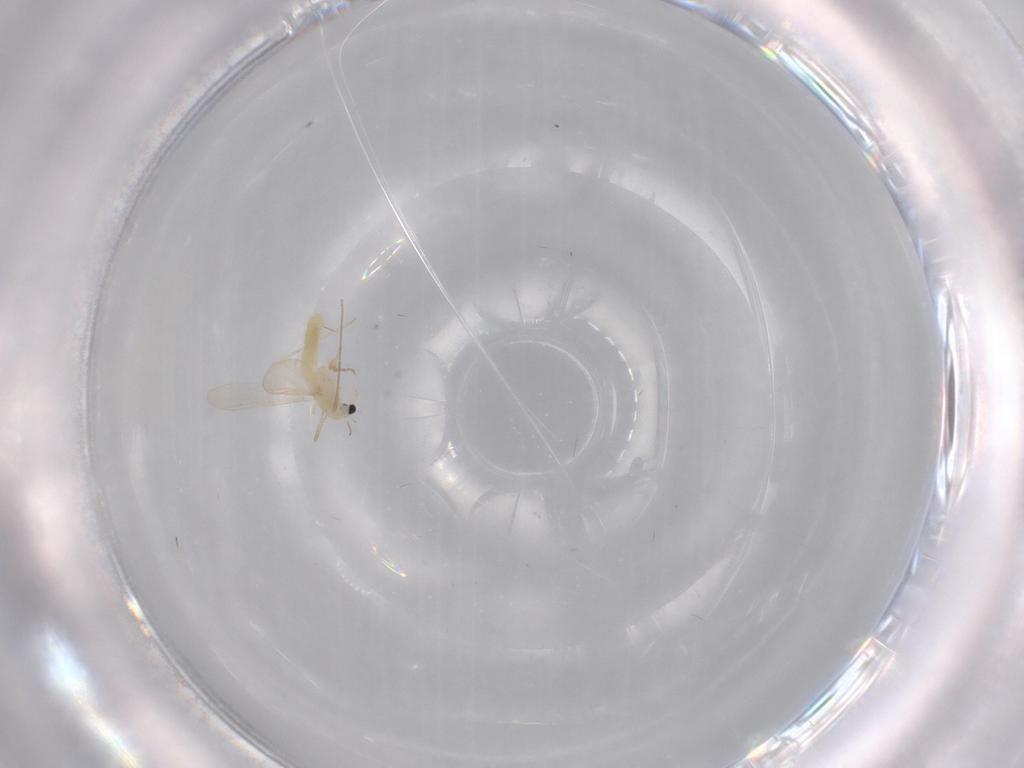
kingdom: Animalia
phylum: Arthropoda
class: Insecta
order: Diptera
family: Chironomidae
